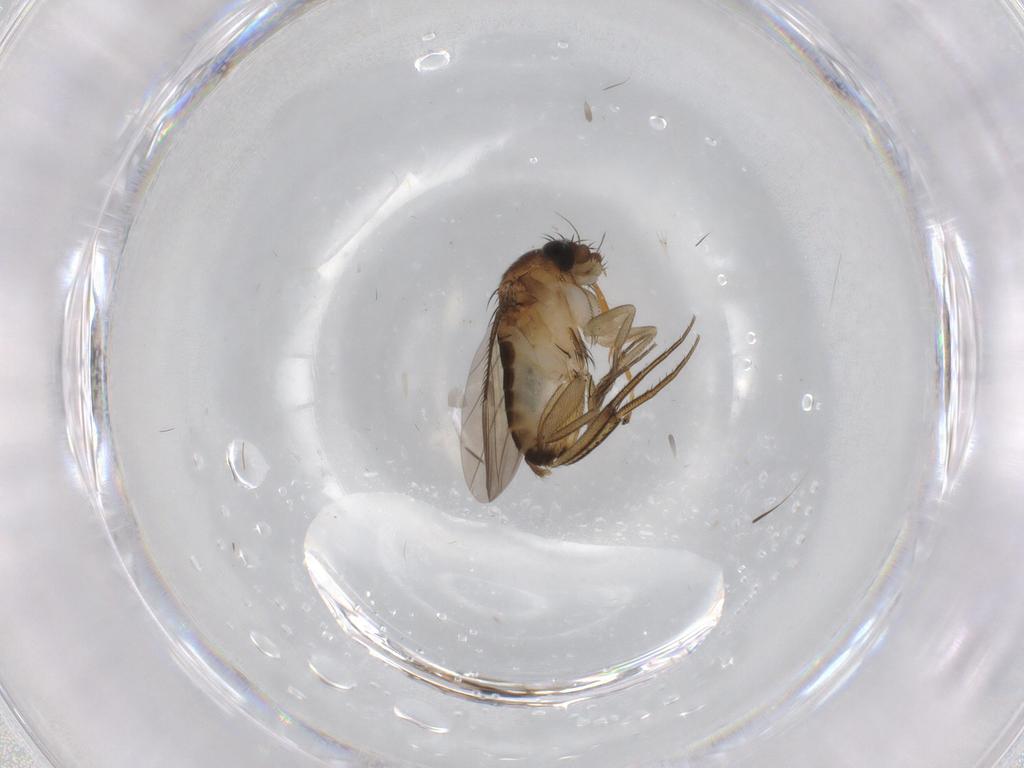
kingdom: Animalia
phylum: Arthropoda
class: Insecta
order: Diptera
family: Phoridae
